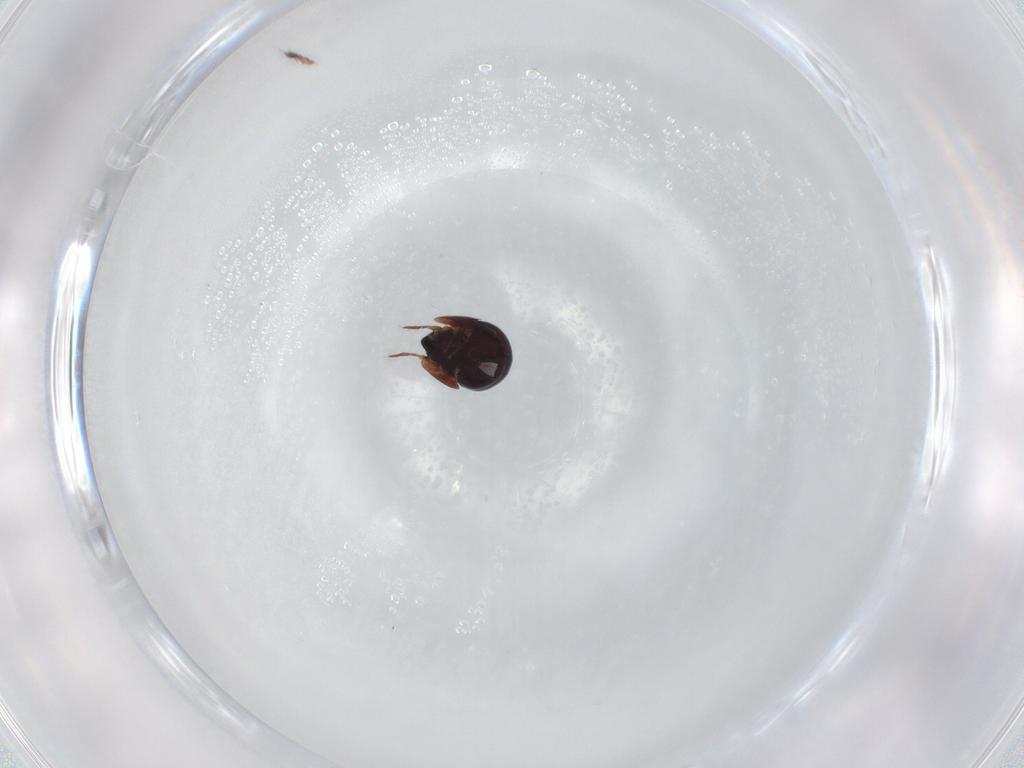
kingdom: Animalia
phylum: Arthropoda
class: Arachnida
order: Sarcoptiformes
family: Ceratozetidae
